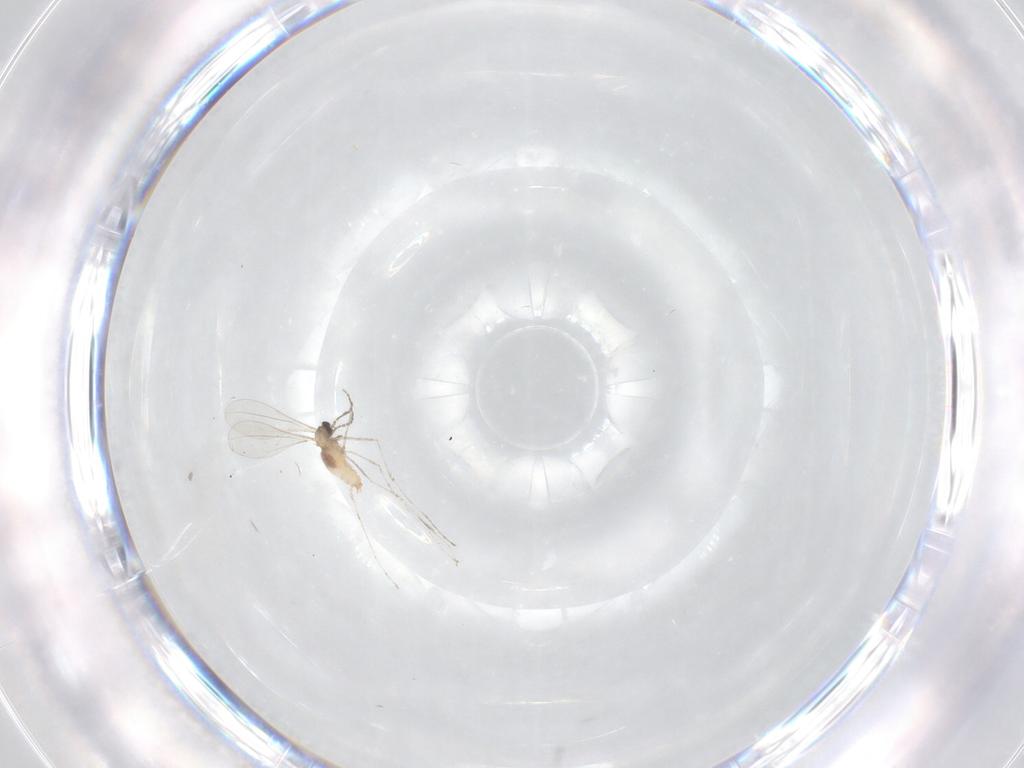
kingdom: Animalia
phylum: Arthropoda
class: Insecta
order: Diptera
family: Cecidomyiidae
